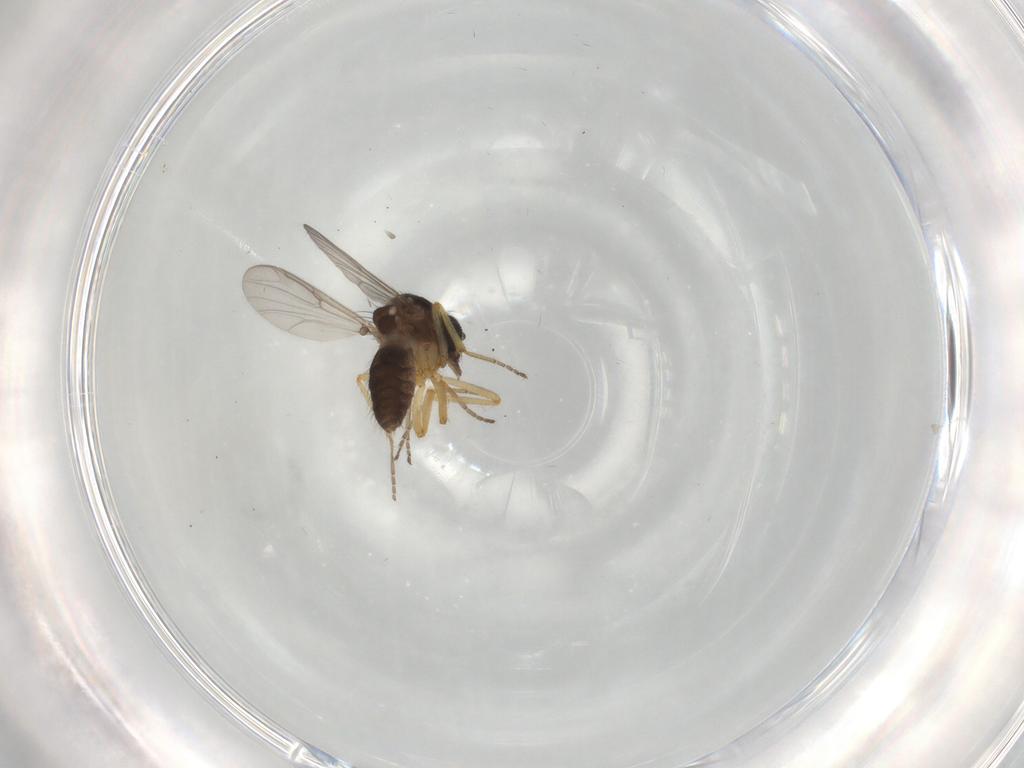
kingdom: Animalia
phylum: Arthropoda
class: Insecta
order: Diptera
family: Ceratopogonidae
